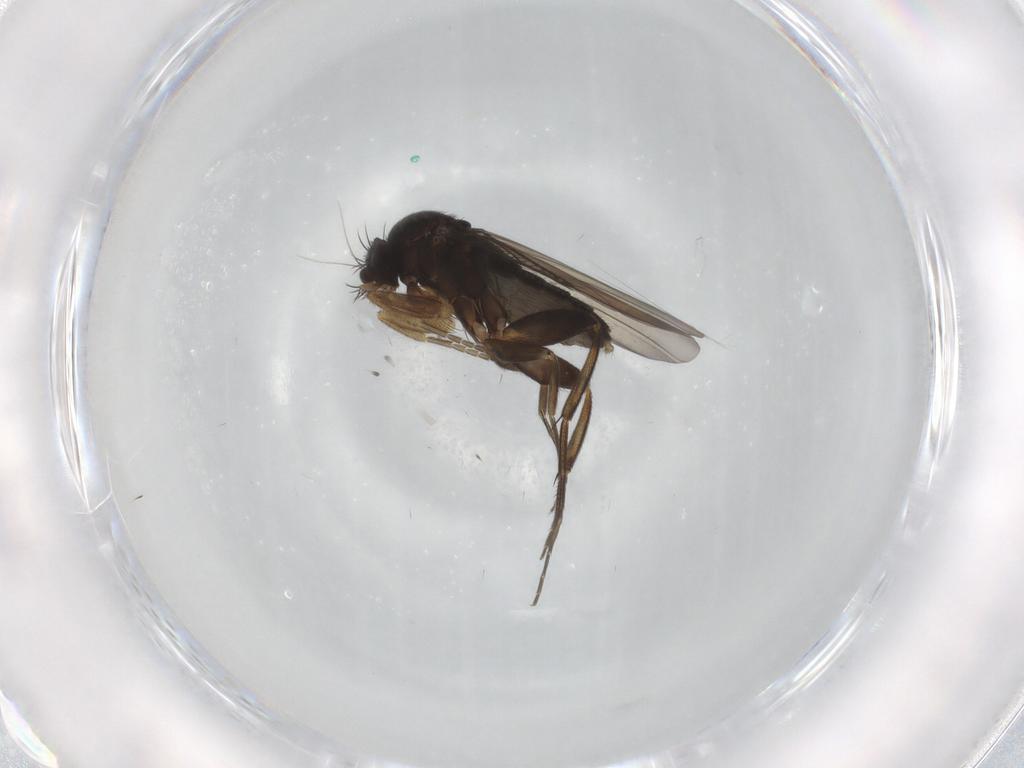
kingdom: Animalia
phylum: Arthropoda
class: Insecta
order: Diptera
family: Phoridae
